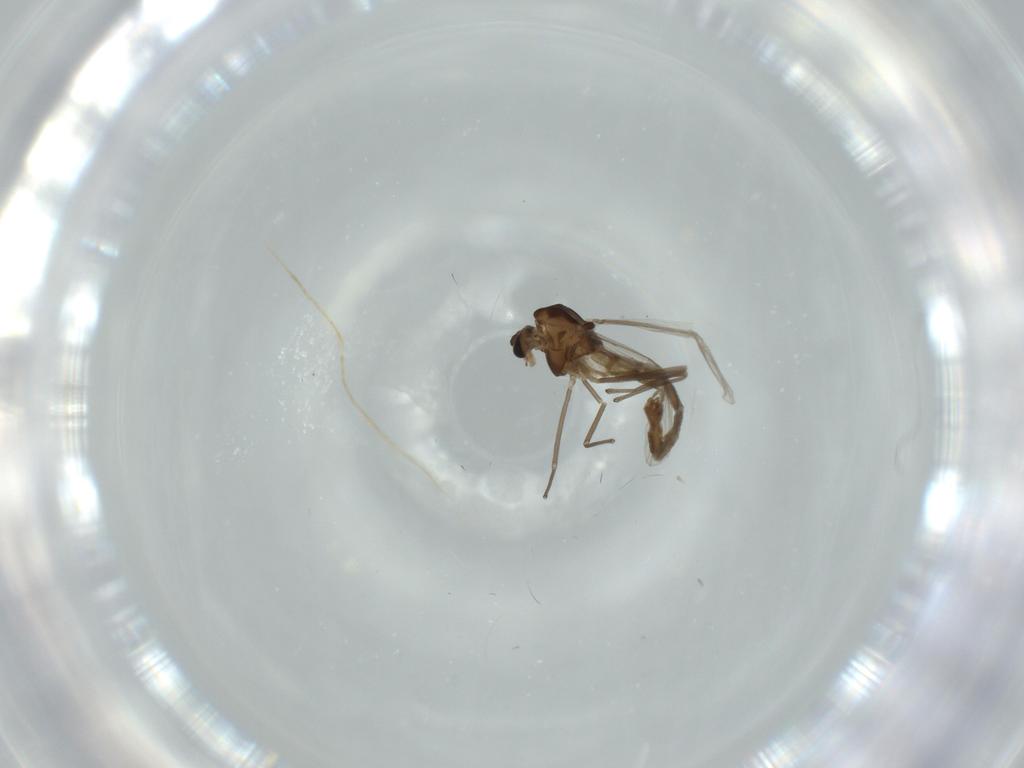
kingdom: Animalia
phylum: Arthropoda
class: Insecta
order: Diptera
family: Chironomidae
